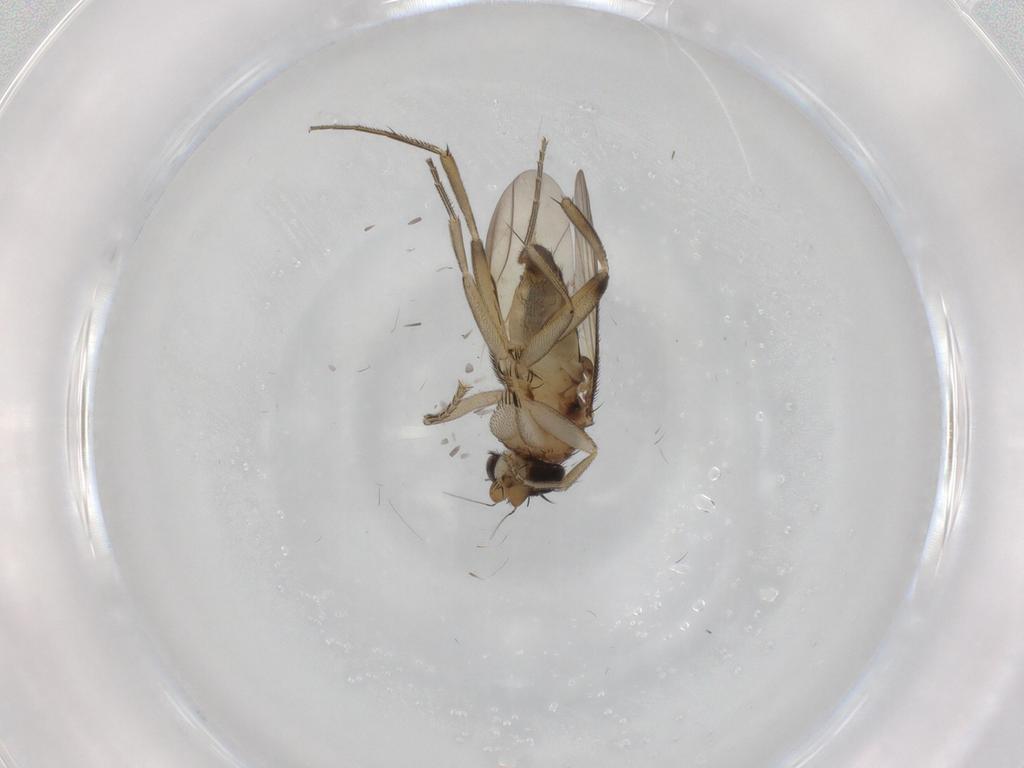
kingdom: Animalia
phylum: Arthropoda
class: Insecta
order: Diptera
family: Phoridae
